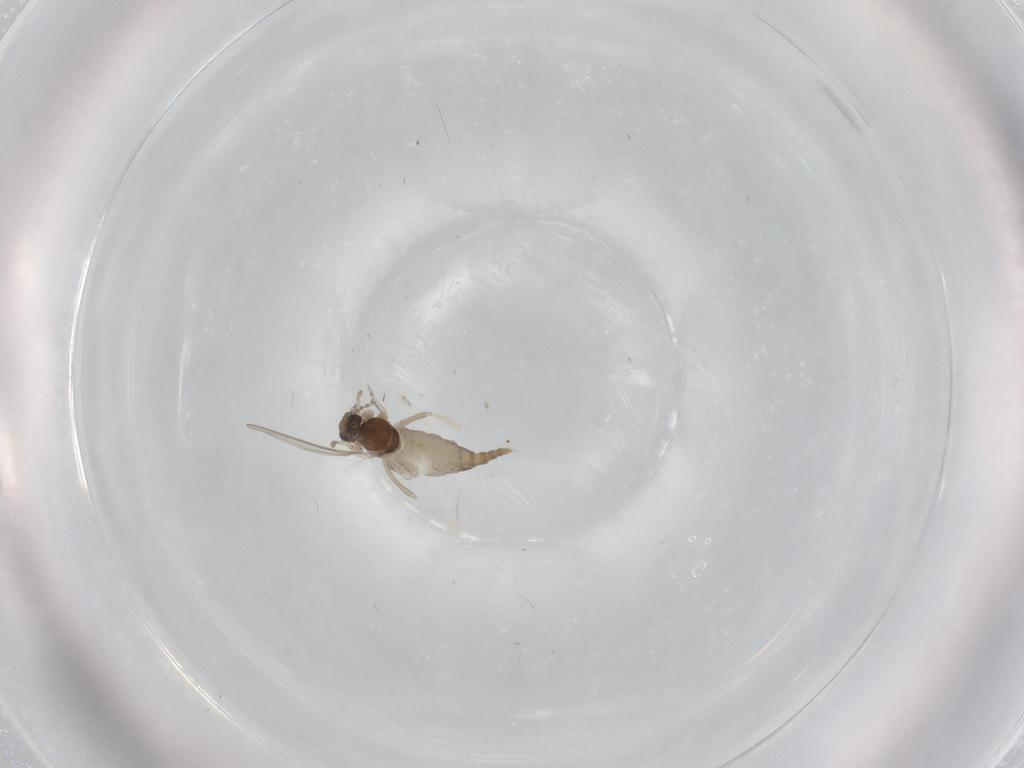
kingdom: Animalia
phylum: Arthropoda
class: Insecta
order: Diptera
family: Cecidomyiidae
